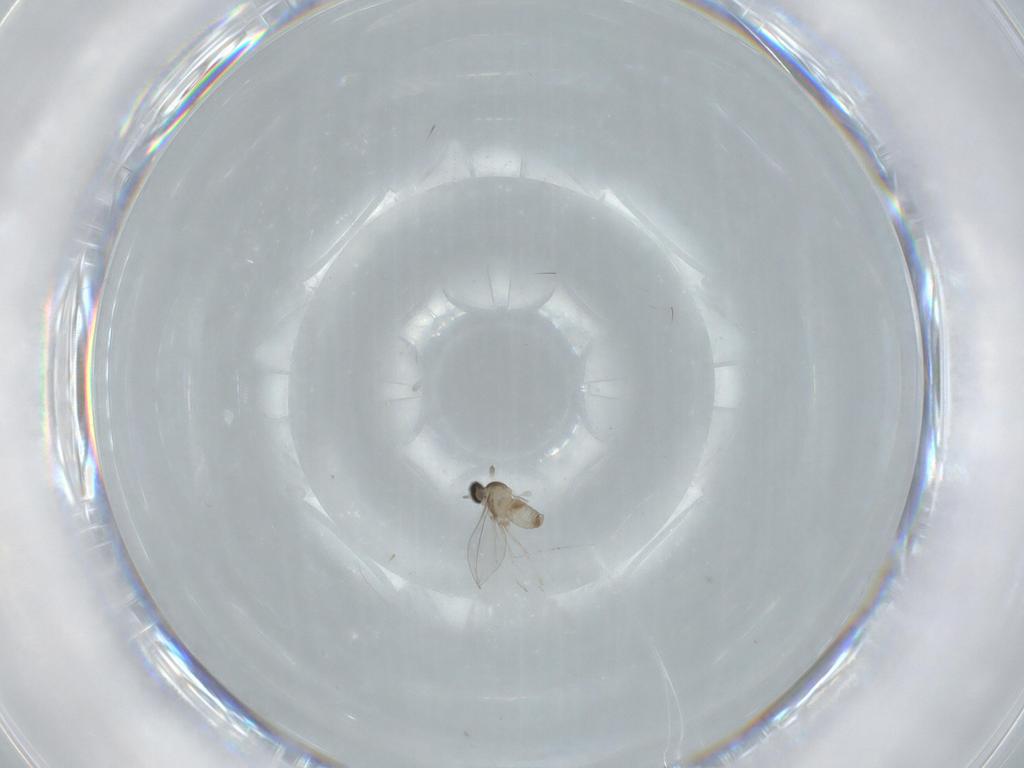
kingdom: Animalia
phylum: Arthropoda
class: Insecta
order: Diptera
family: Cecidomyiidae
